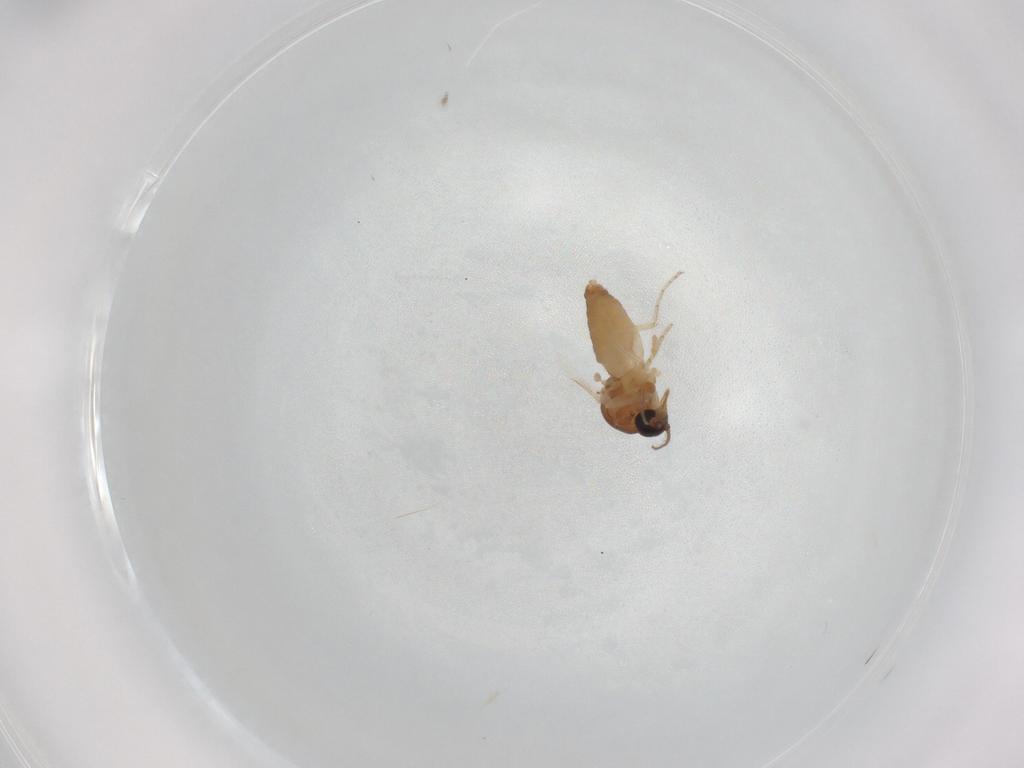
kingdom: Animalia
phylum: Arthropoda
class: Insecta
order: Diptera
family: Ceratopogonidae
